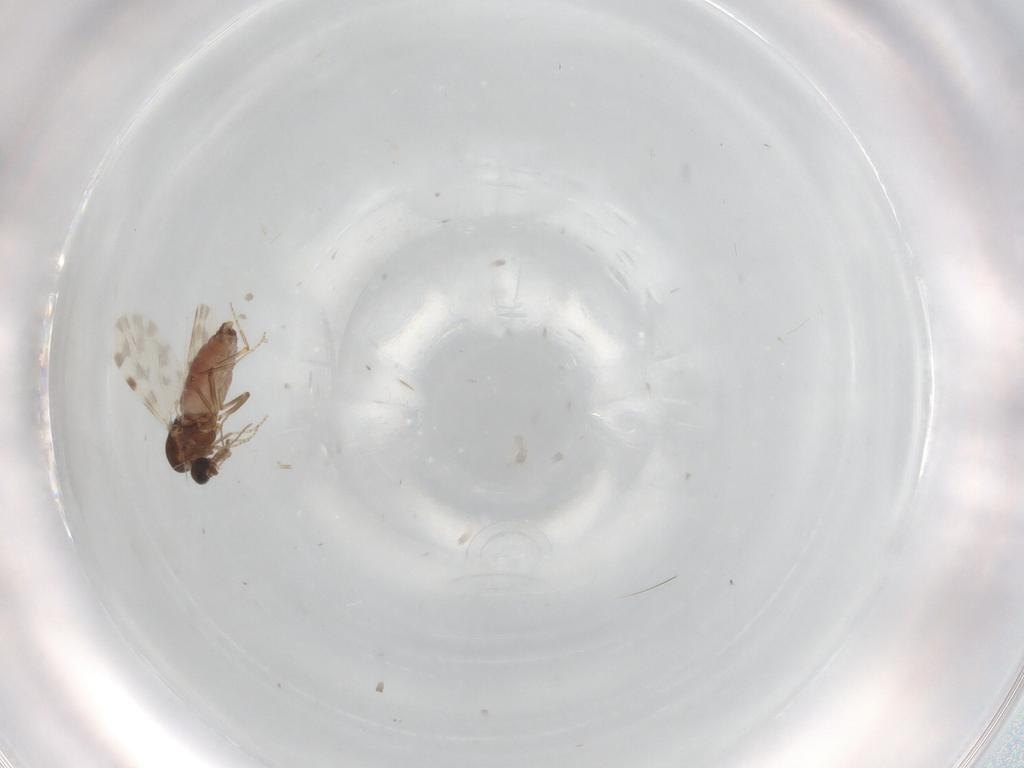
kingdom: Animalia
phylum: Arthropoda
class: Insecta
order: Diptera
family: Ceratopogonidae
